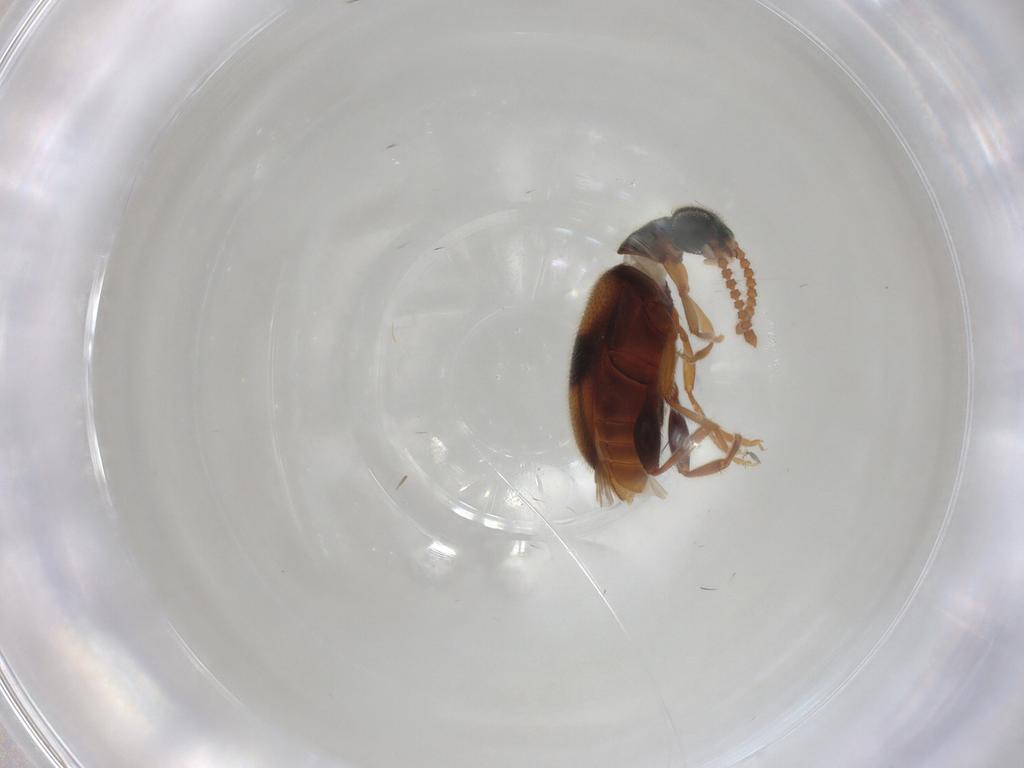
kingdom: Animalia
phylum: Arthropoda
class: Insecta
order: Coleoptera
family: Aderidae
